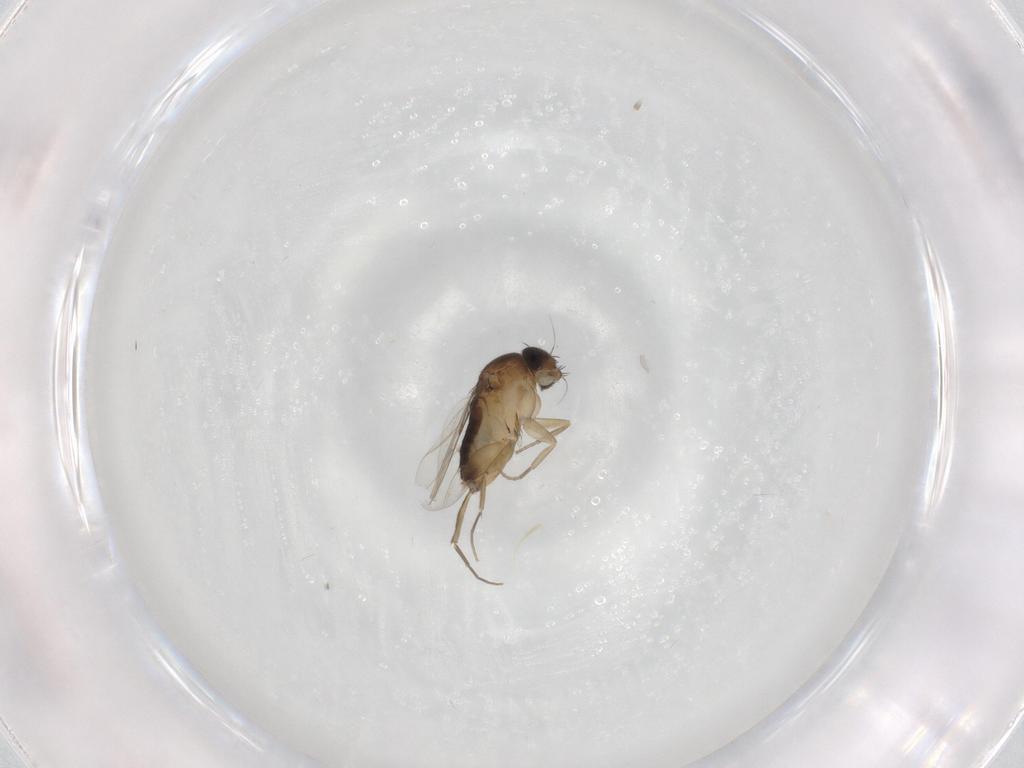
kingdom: Animalia
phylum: Arthropoda
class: Insecta
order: Diptera
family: Phoridae
